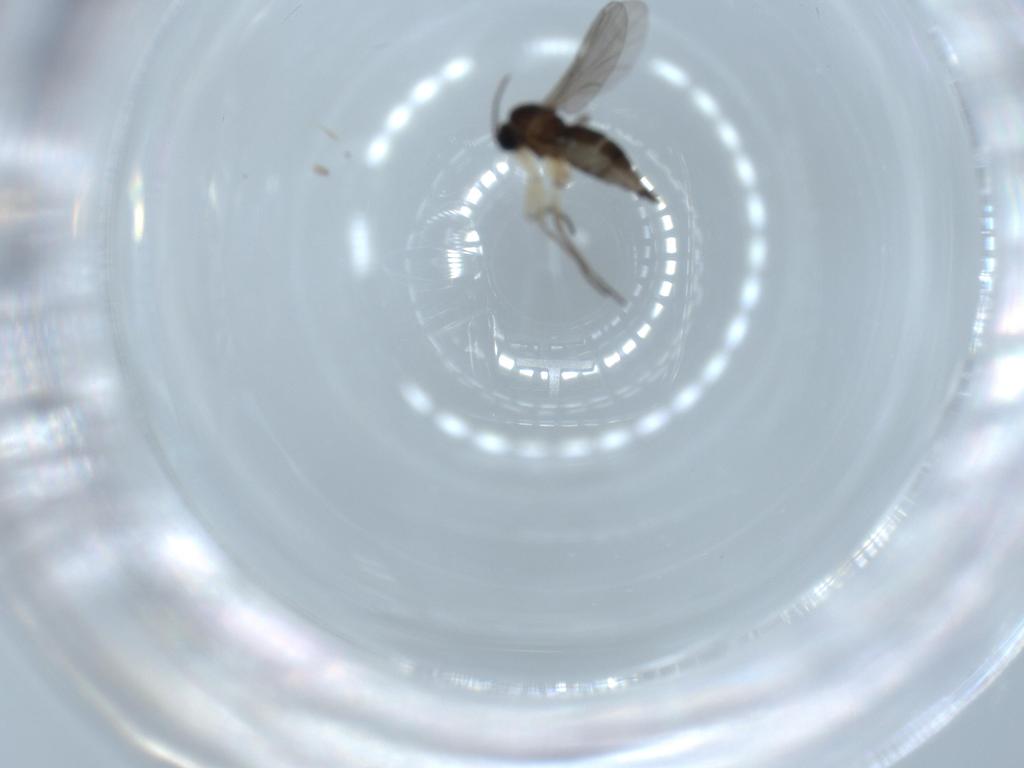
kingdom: Animalia
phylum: Arthropoda
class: Insecta
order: Diptera
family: Sciaridae
